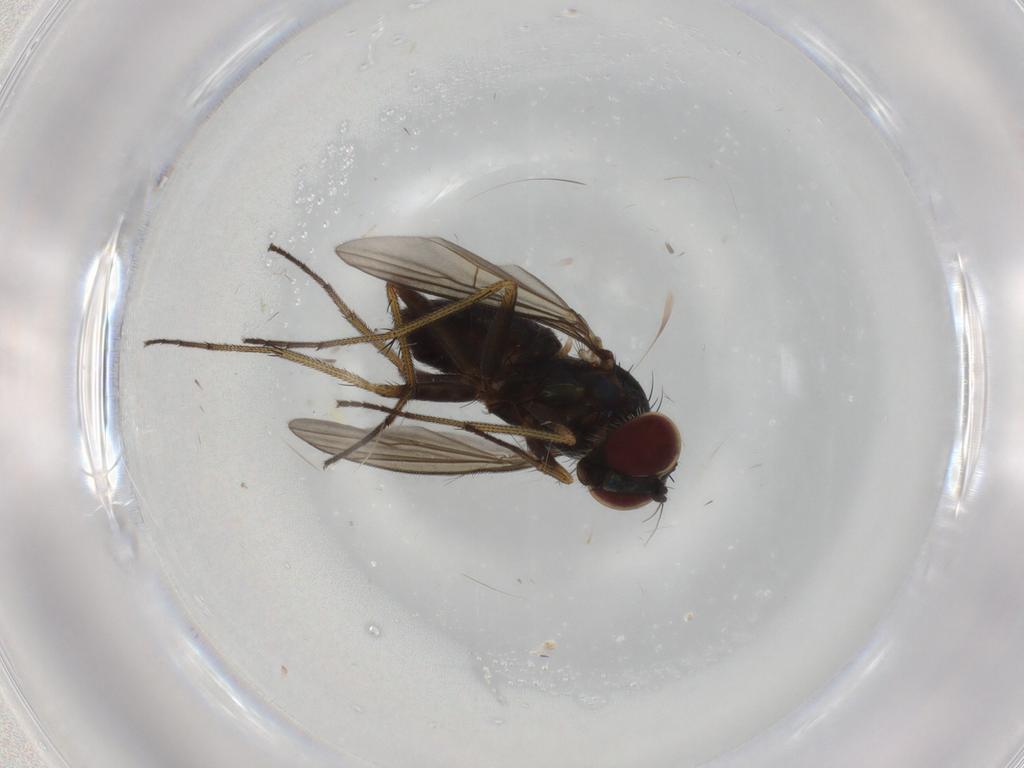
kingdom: Animalia
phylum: Arthropoda
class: Insecta
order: Diptera
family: Dolichopodidae
